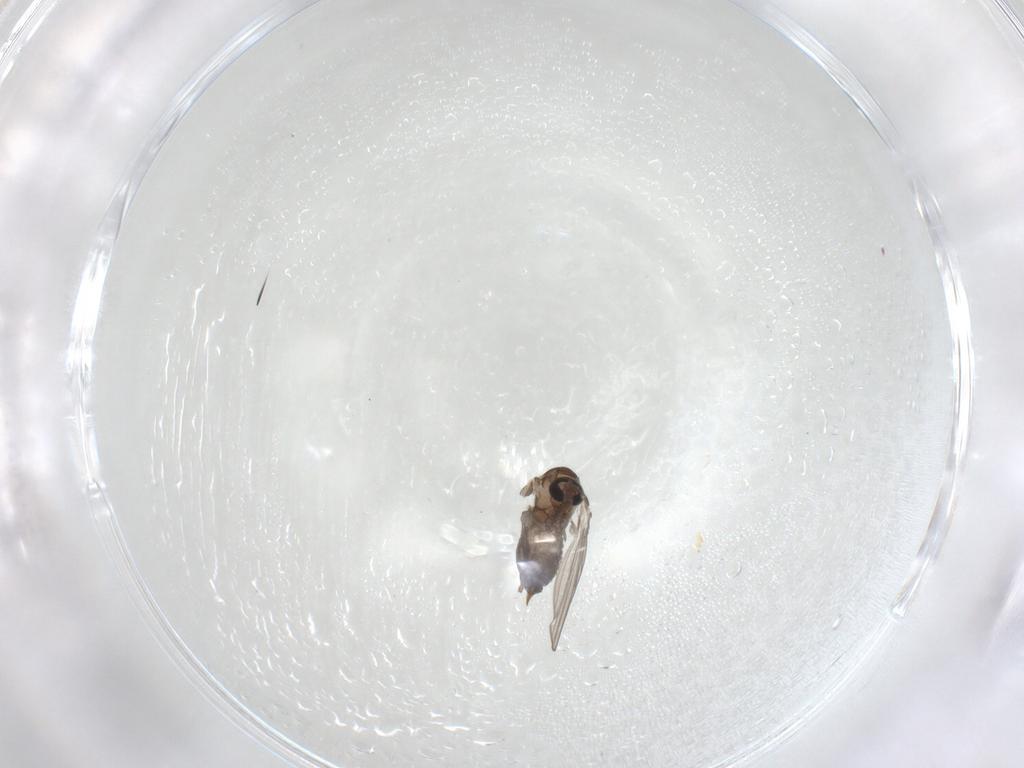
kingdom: Animalia
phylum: Arthropoda
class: Insecta
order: Diptera
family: Psychodidae
